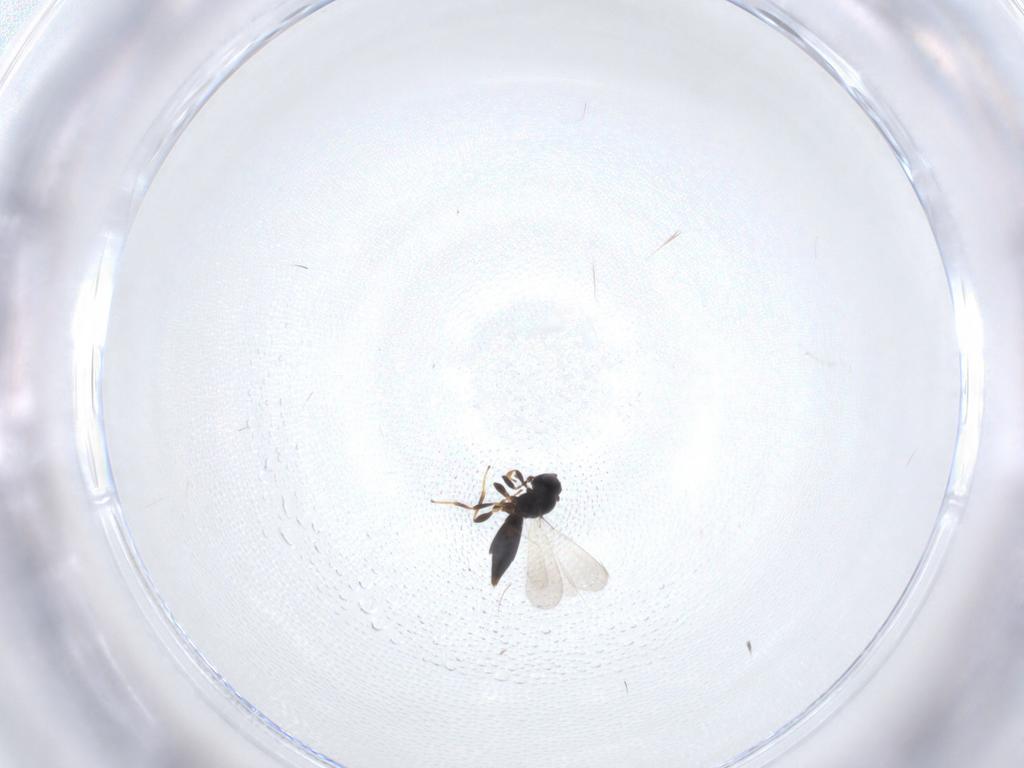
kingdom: Animalia
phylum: Arthropoda
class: Insecta
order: Hymenoptera
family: Platygastridae
